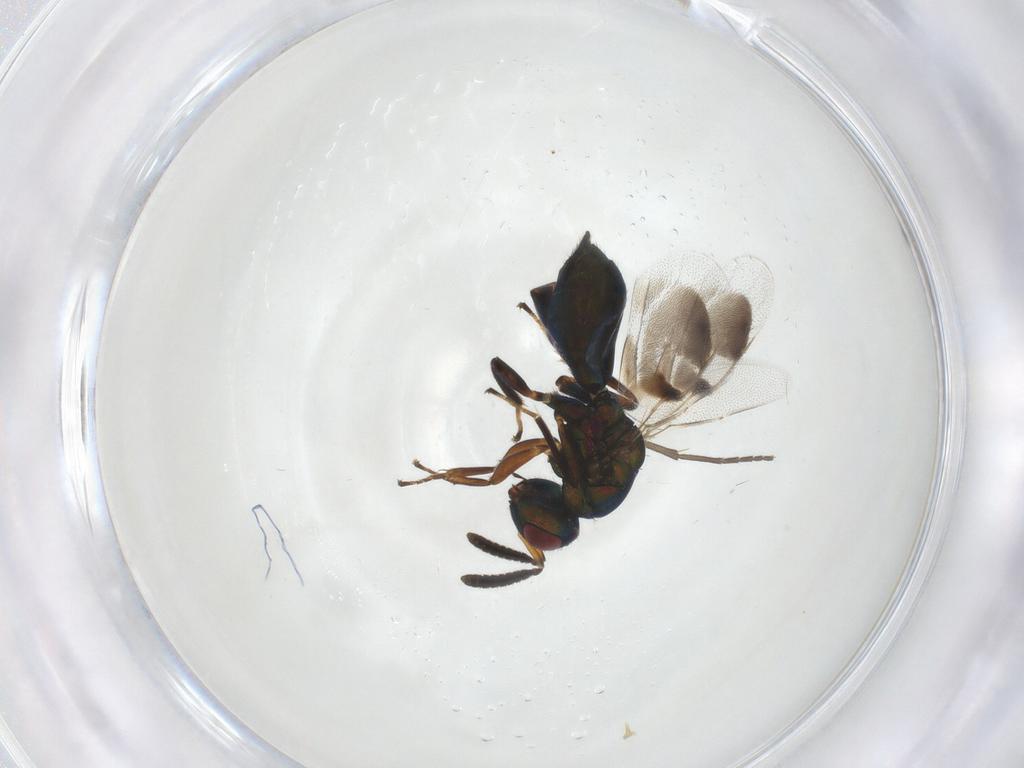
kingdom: Animalia
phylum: Arthropoda
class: Insecta
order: Hymenoptera
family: Pteromalidae
